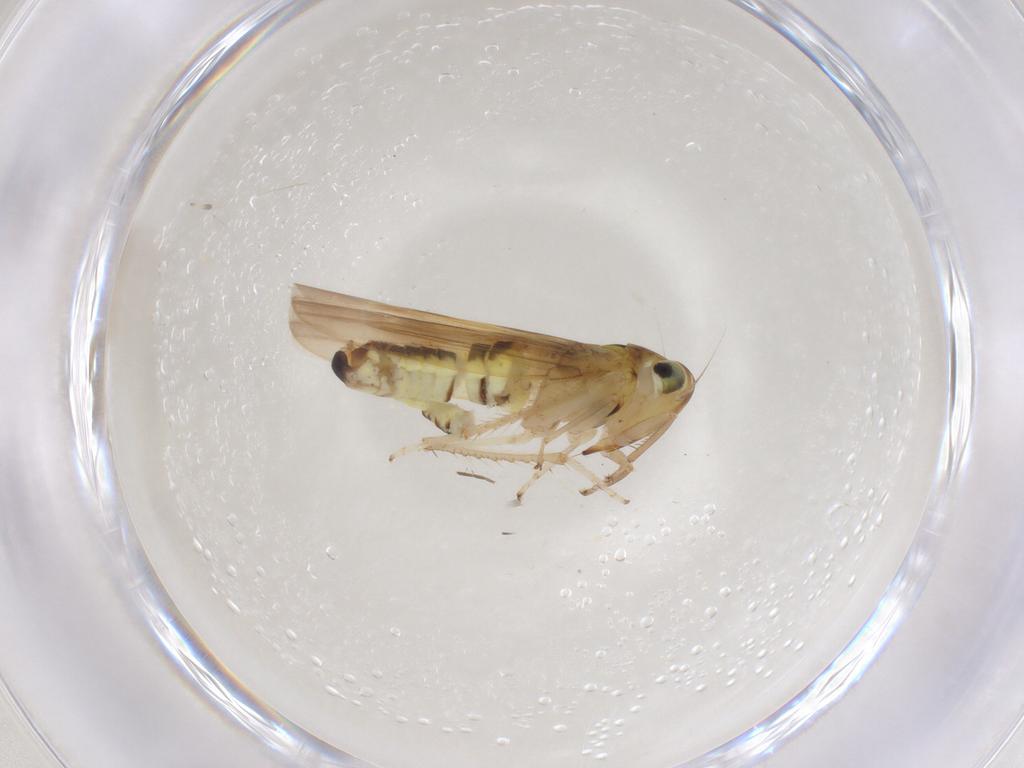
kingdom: Animalia
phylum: Arthropoda
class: Insecta
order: Hemiptera
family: Cicadellidae
